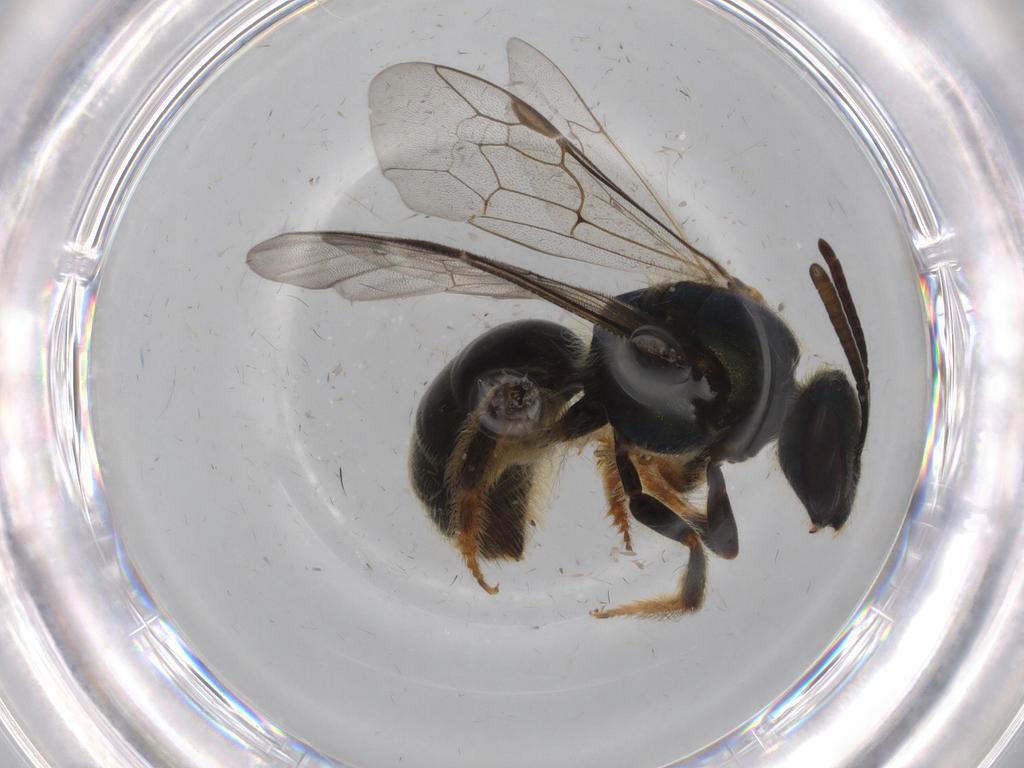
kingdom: Animalia
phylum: Arthropoda
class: Insecta
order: Hymenoptera
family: Halictidae
